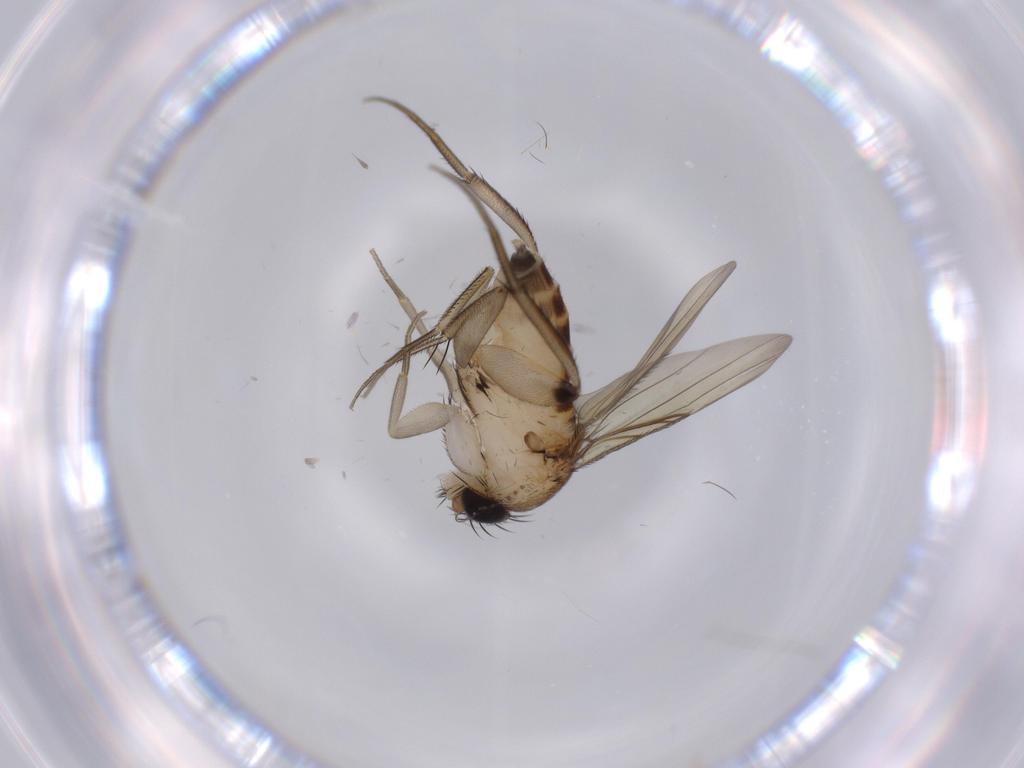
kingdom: Animalia
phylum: Arthropoda
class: Insecta
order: Diptera
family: Phoridae
